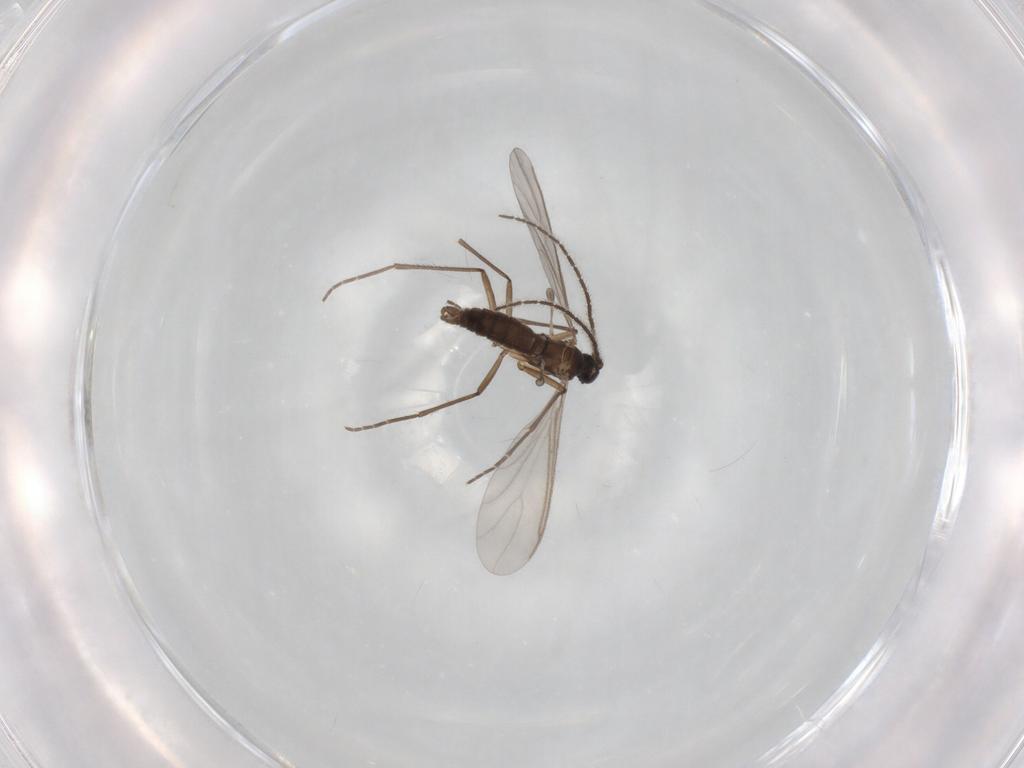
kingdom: Animalia
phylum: Arthropoda
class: Insecta
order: Diptera
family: Sciaridae
